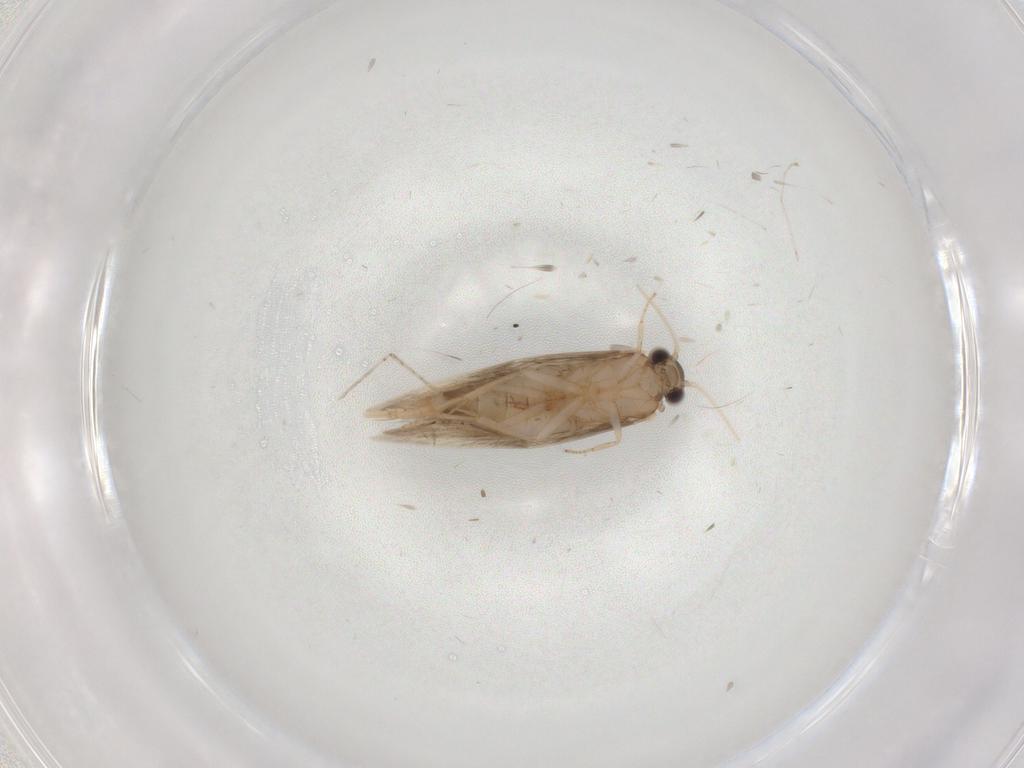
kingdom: Animalia
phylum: Arthropoda
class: Insecta
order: Trichoptera
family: Hydroptilidae
